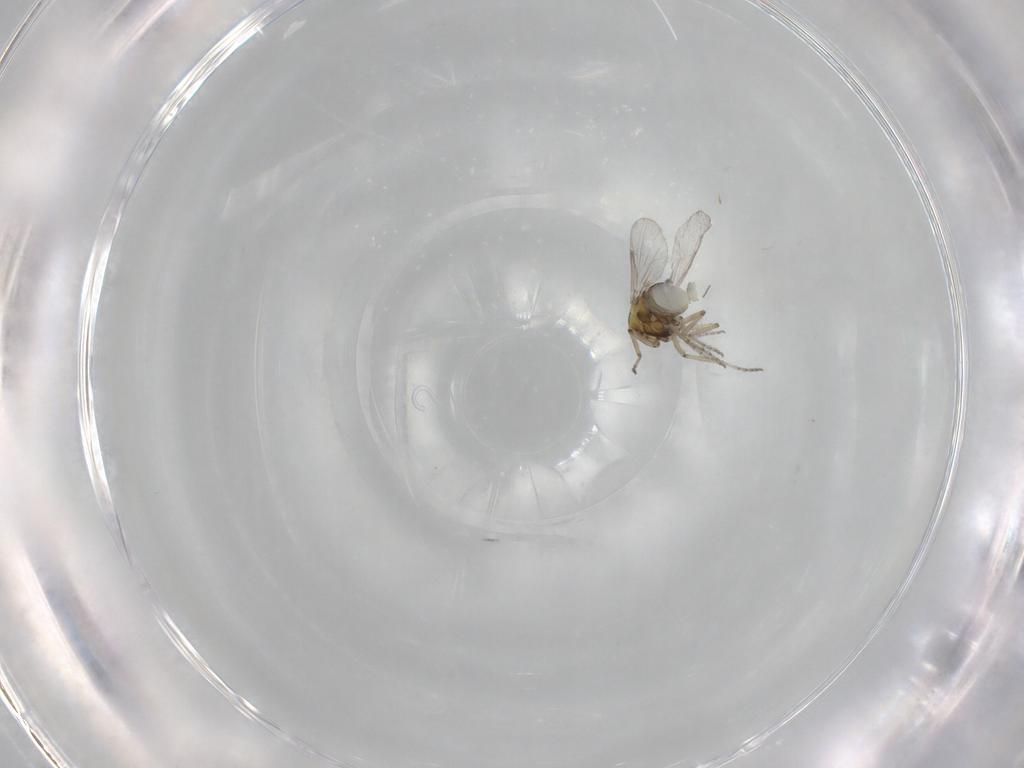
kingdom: Animalia
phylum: Arthropoda
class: Insecta
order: Diptera
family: Ceratopogonidae
